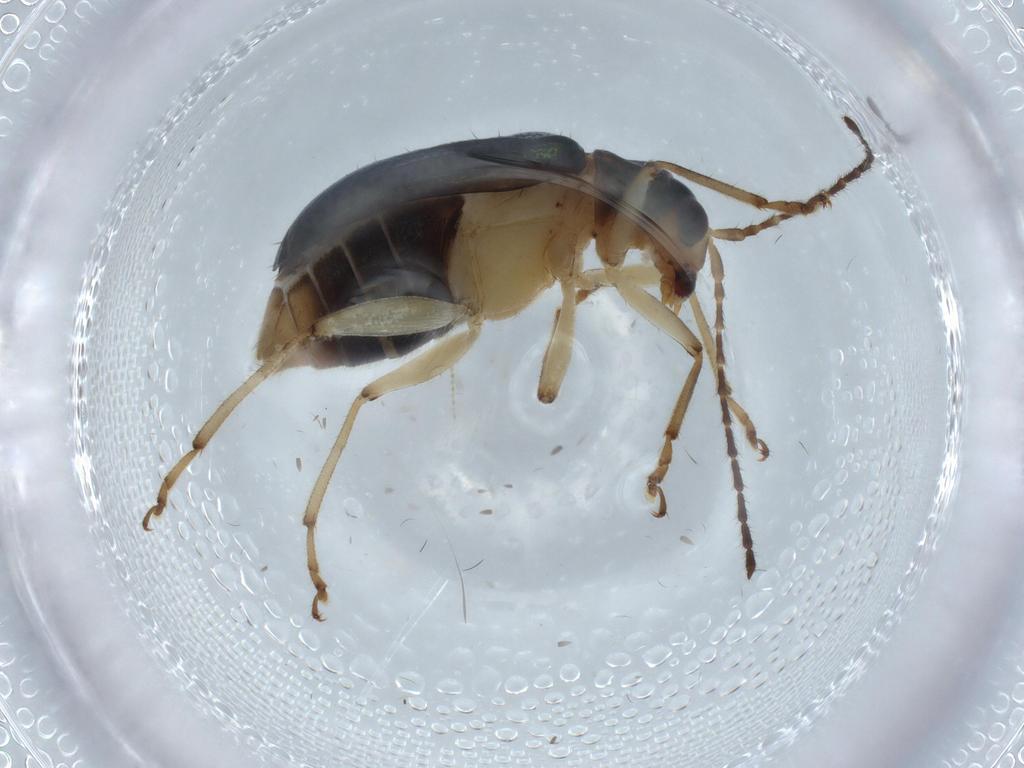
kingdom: Animalia
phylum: Arthropoda
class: Insecta
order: Coleoptera
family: Chrysomelidae
